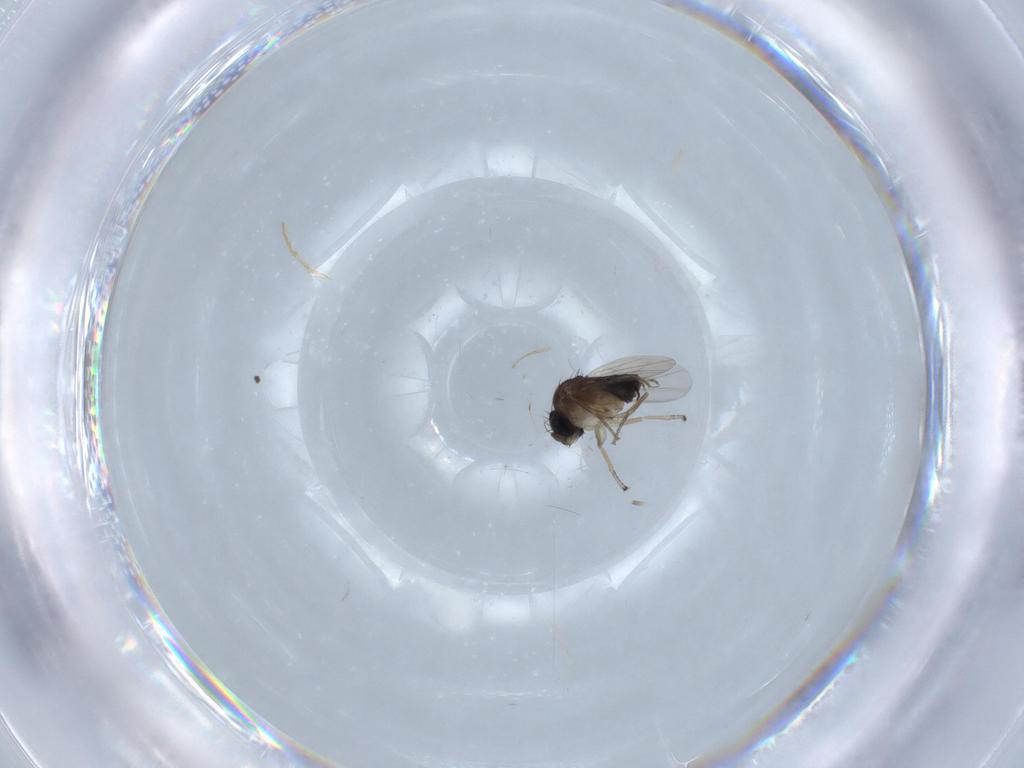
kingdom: Animalia
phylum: Arthropoda
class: Insecta
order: Diptera
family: Phoridae
